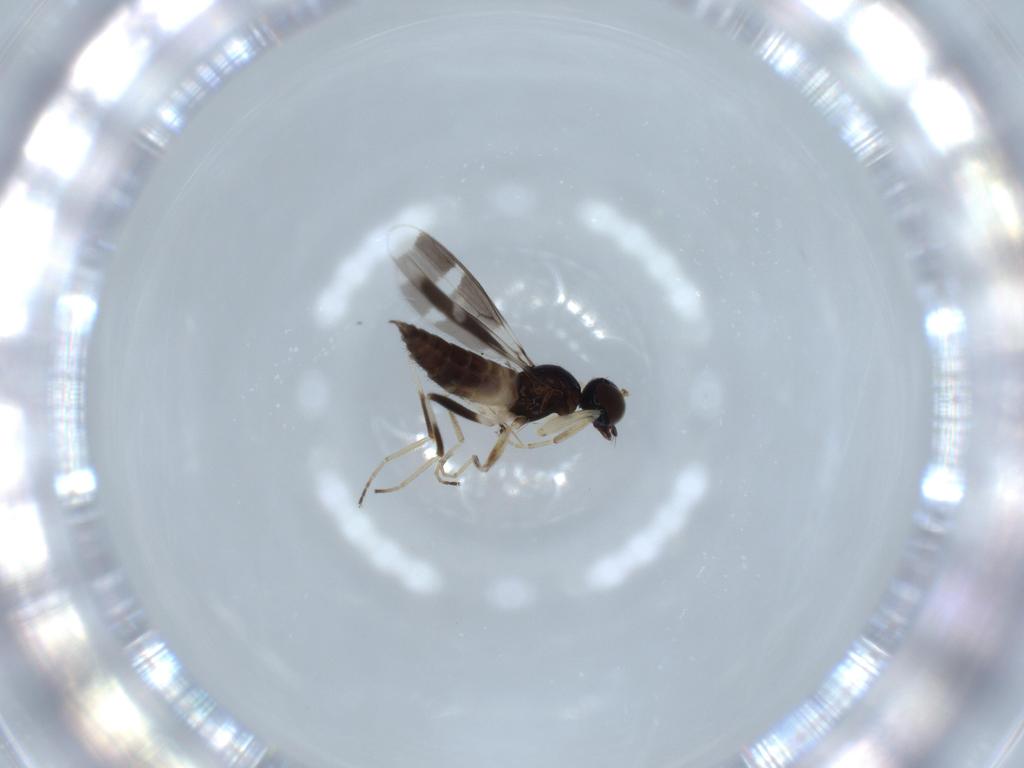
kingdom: Animalia
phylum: Arthropoda
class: Insecta
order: Diptera
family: Hybotidae
